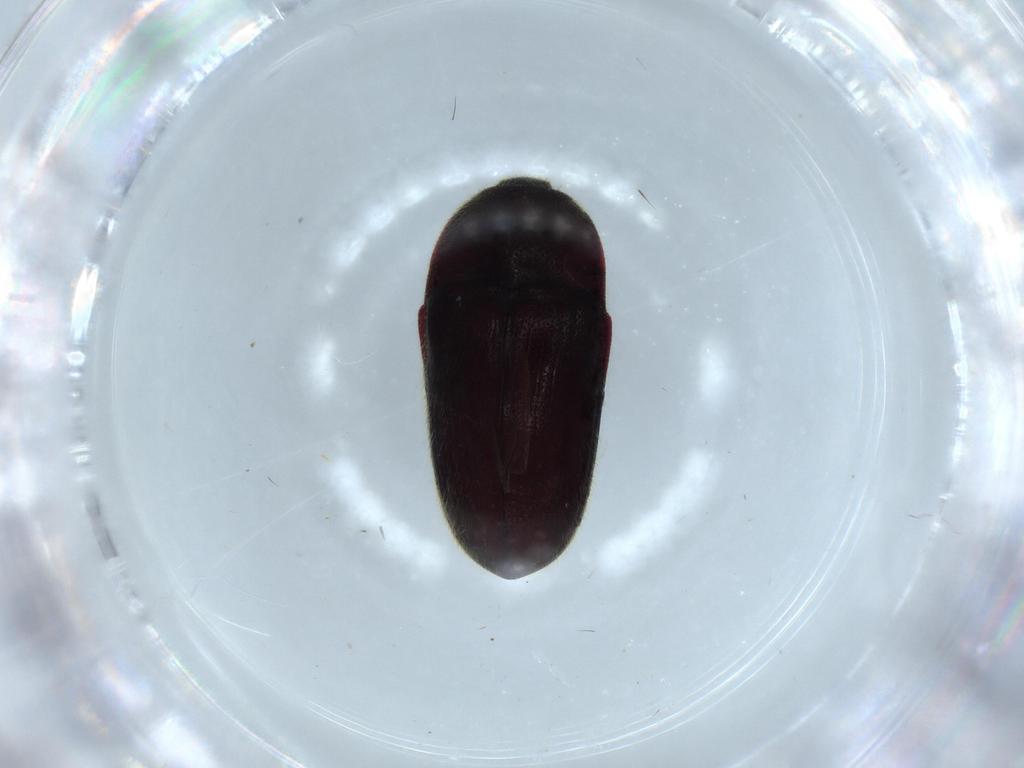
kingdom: Animalia
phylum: Arthropoda
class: Insecta
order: Coleoptera
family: Throscidae
